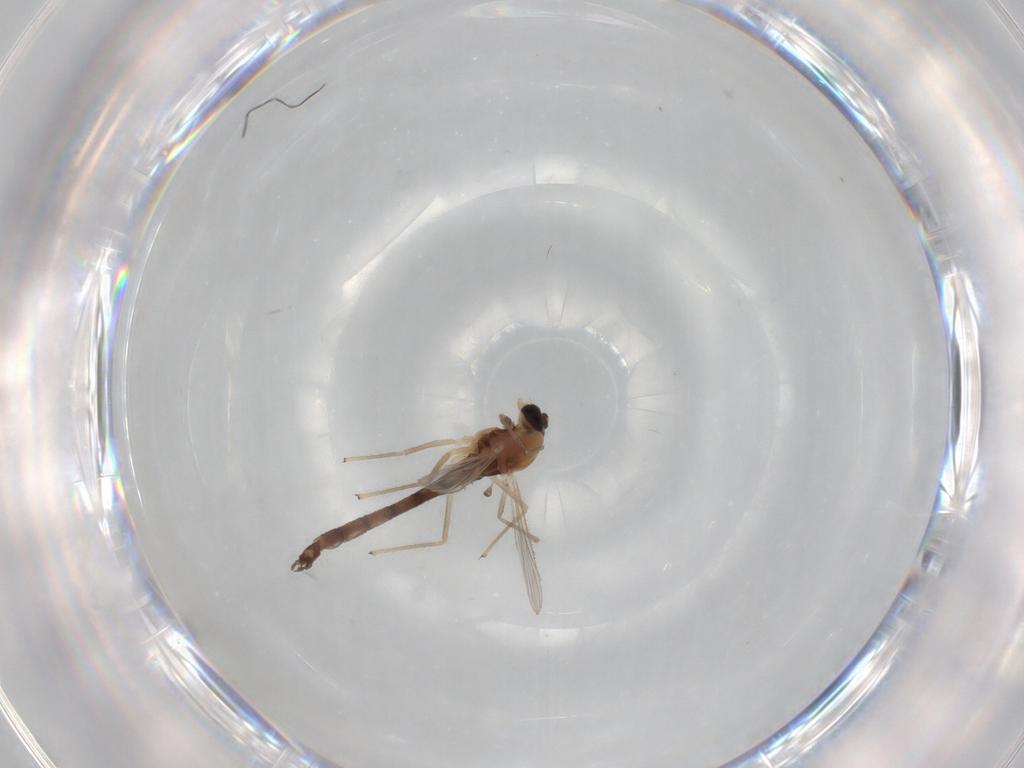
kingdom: Animalia
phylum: Arthropoda
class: Insecta
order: Diptera
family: Chironomidae
